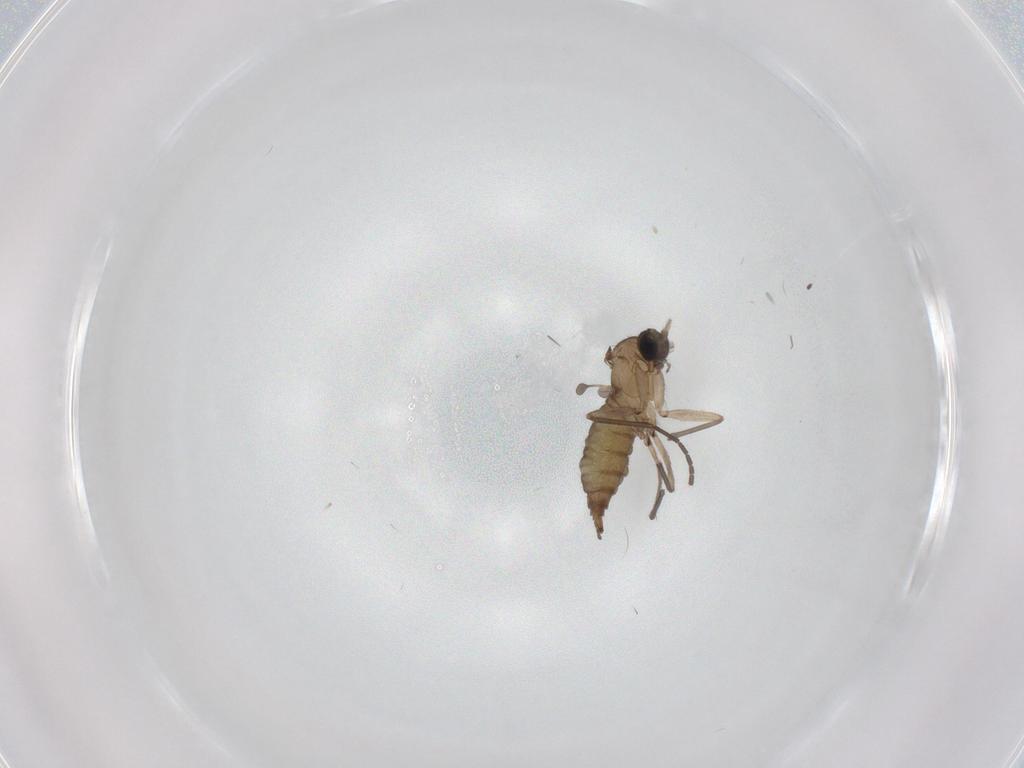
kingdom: Animalia
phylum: Arthropoda
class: Insecta
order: Diptera
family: Sciaridae
